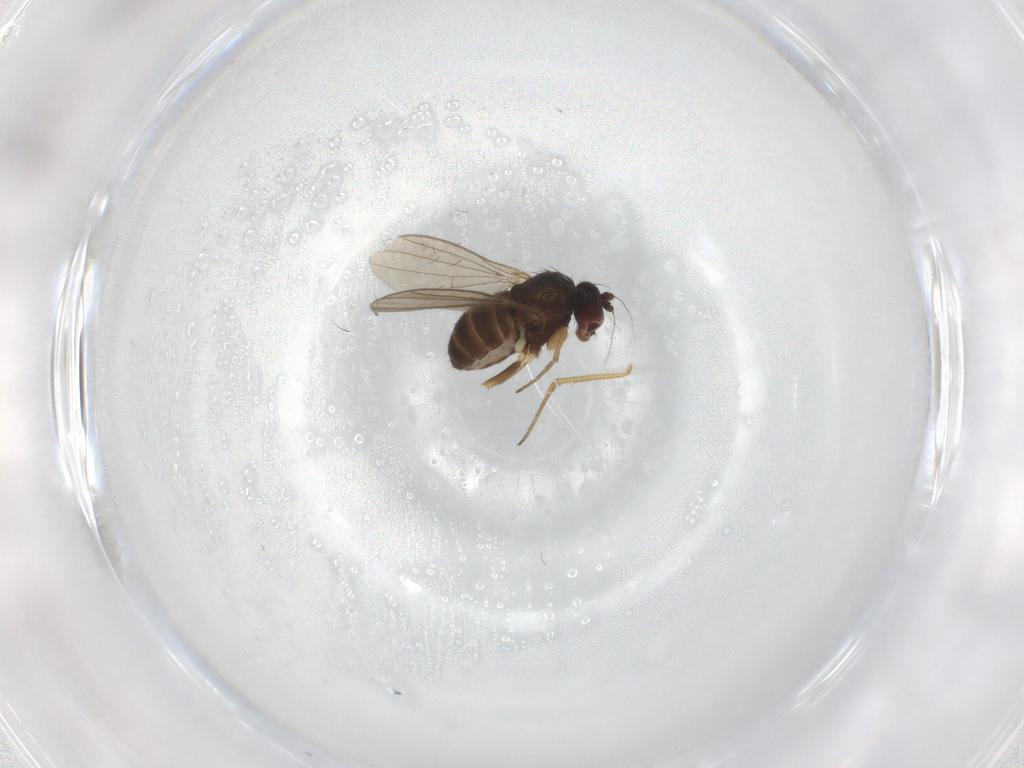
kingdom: Animalia
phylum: Arthropoda
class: Insecta
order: Diptera
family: Dolichopodidae
